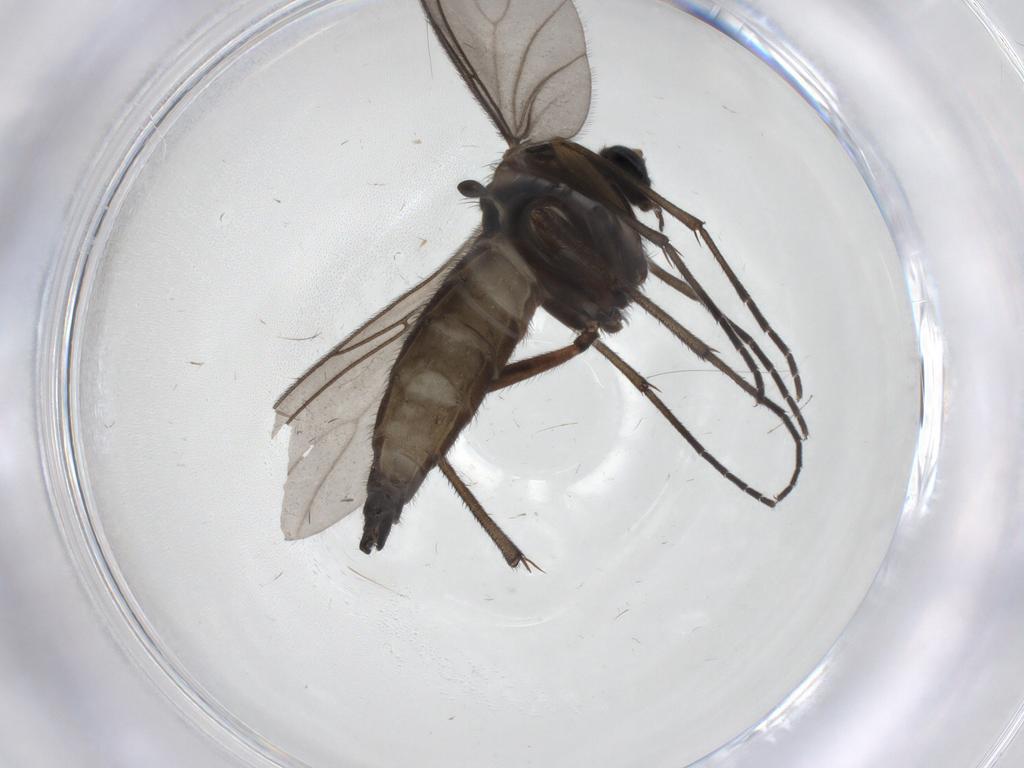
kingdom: Animalia
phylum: Arthropoda
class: Insecta
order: Diptera
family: Sciaridae
